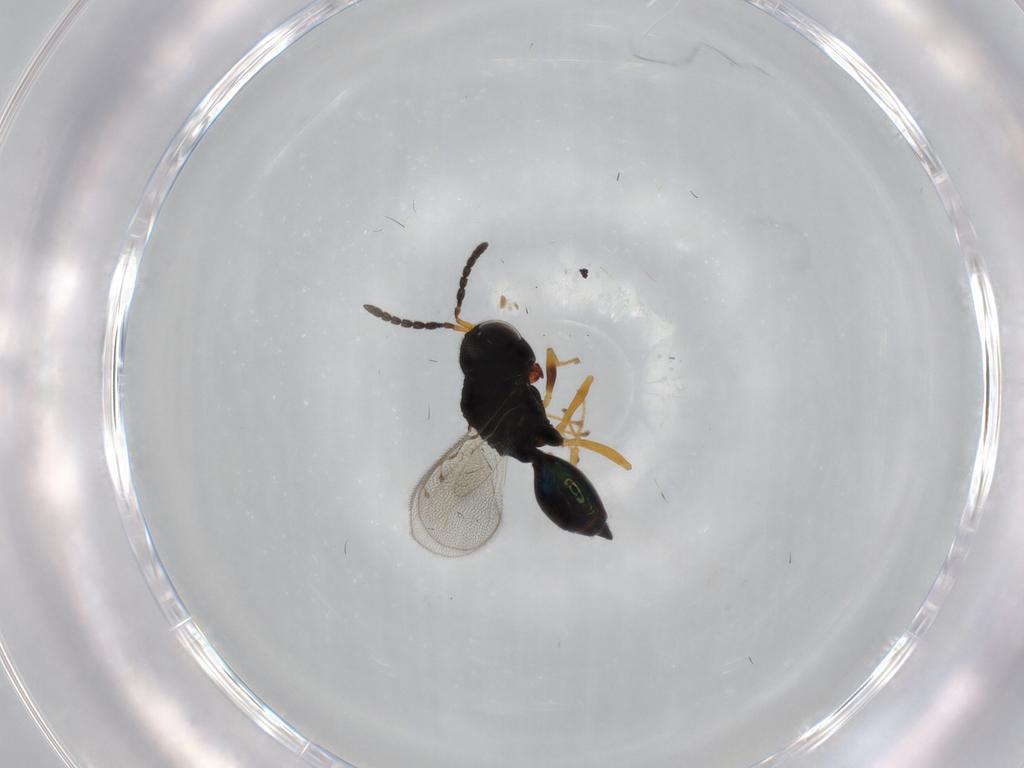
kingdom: Animalia
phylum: Arthropoda
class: Insecta
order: Hymenoptera
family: Pteromalidae
